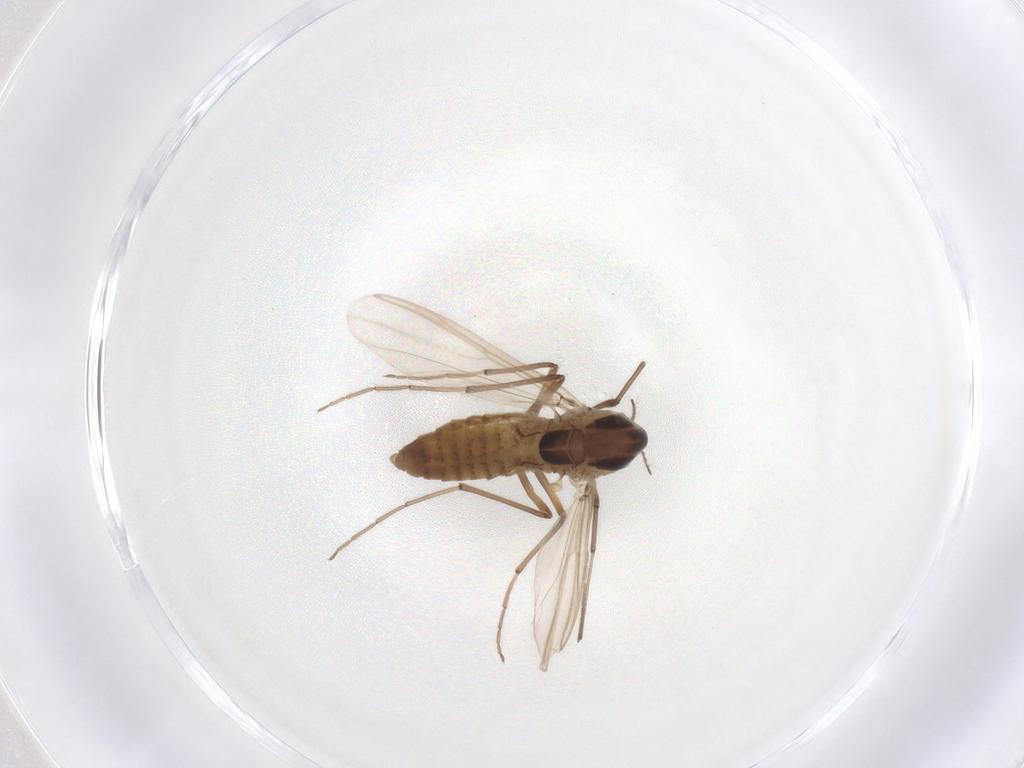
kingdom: Animalia
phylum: Arthropoda
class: Insecta
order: Diptera
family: Chironomidae
